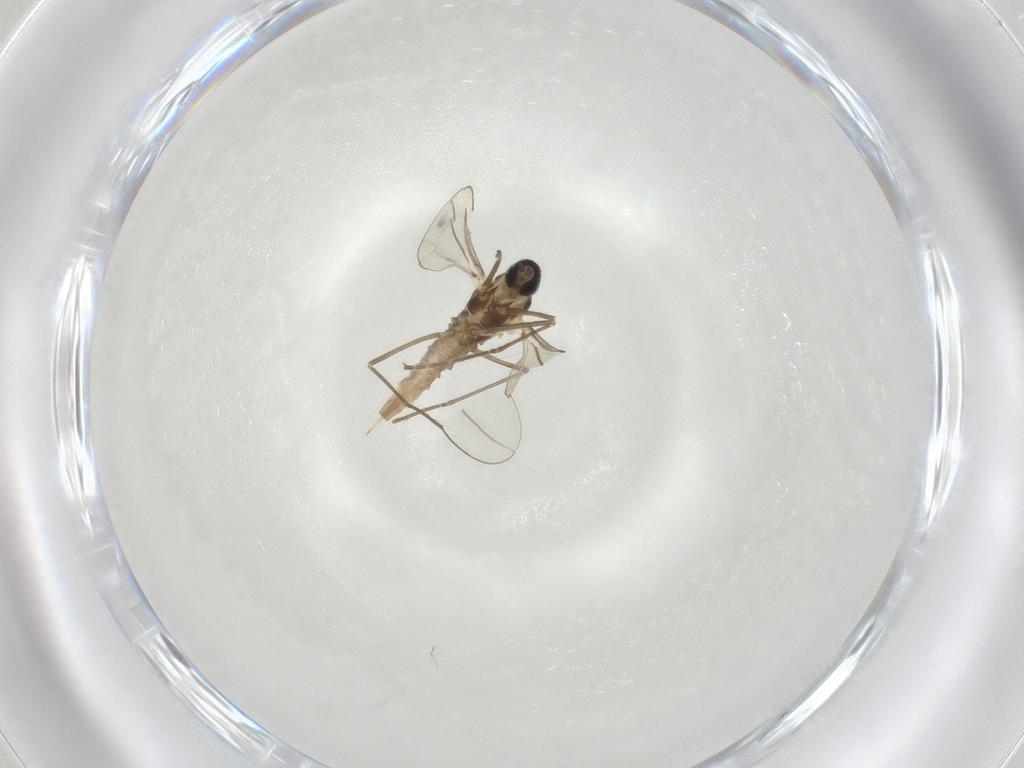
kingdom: Animalia
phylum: Arthropoda
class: Insecta
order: Diptera
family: Cecidomyiidae
